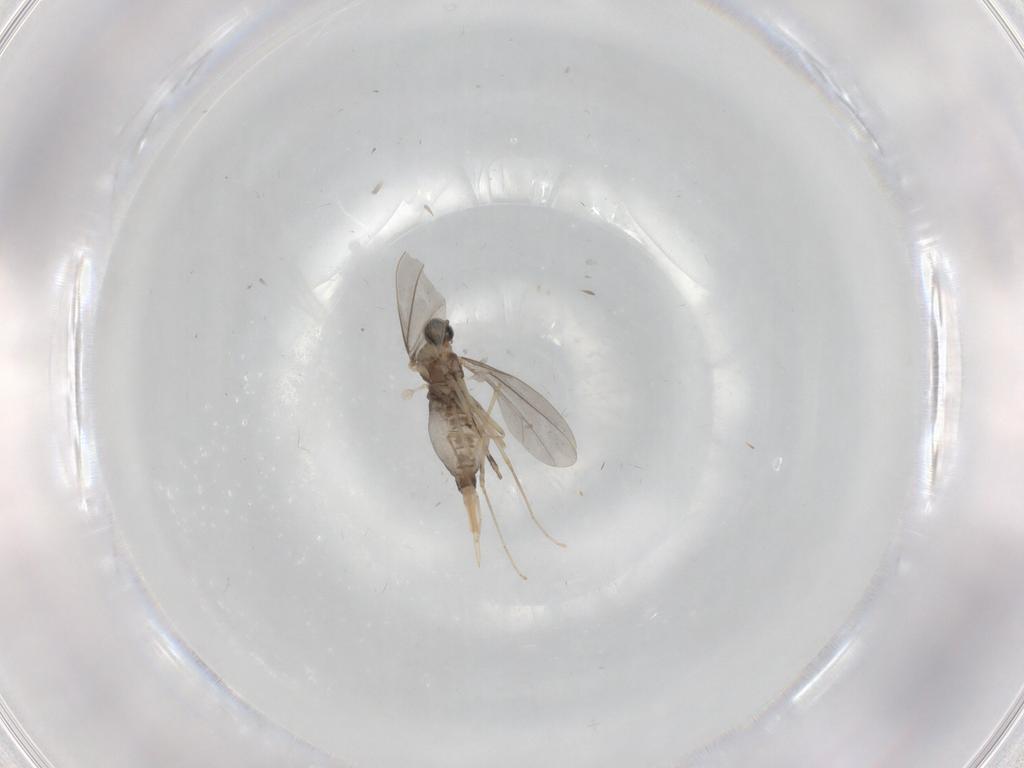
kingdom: Animalia
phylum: Arthropoda
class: Insecta
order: Diptera
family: Cecidomyiidae
